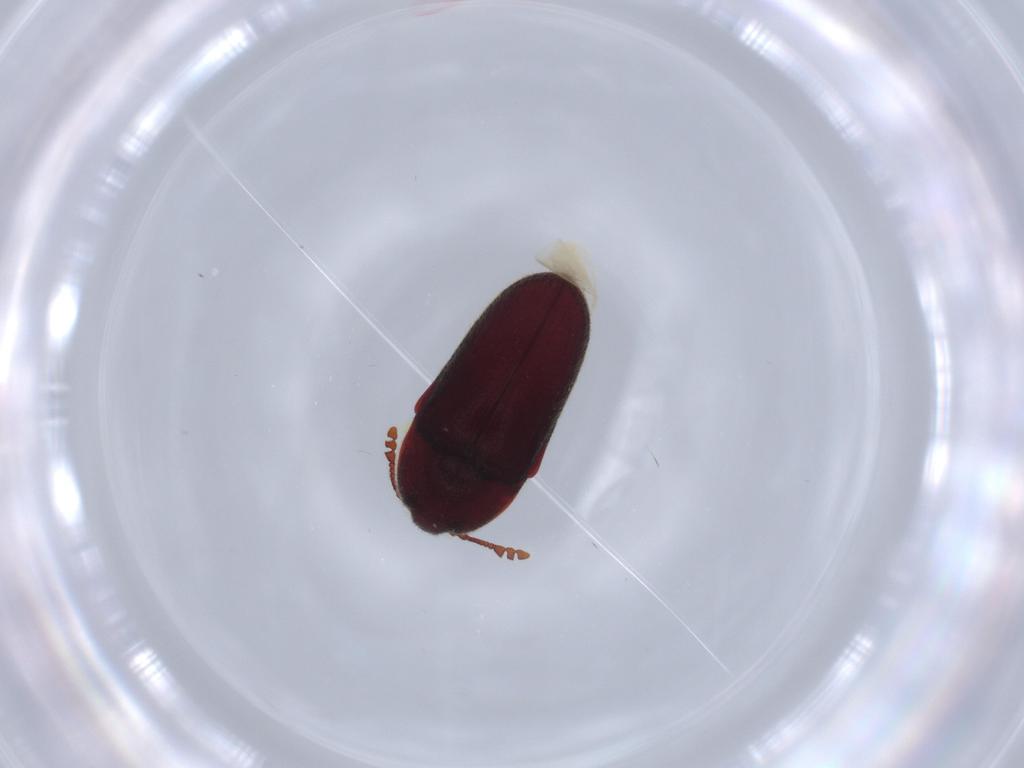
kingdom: Animalia
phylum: Arthropoda
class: Insecta
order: Coleoptera
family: Throscidae
